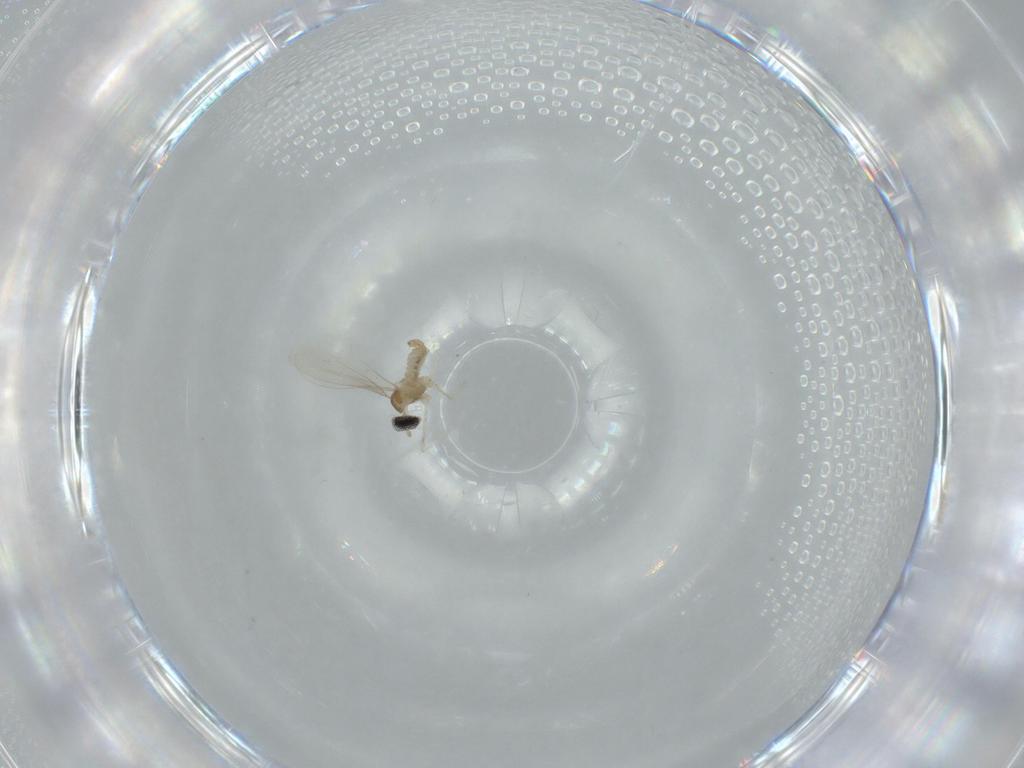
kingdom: Animalia
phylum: Arthropoda
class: Insecta
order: Diptera
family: Cecidomyiidae
